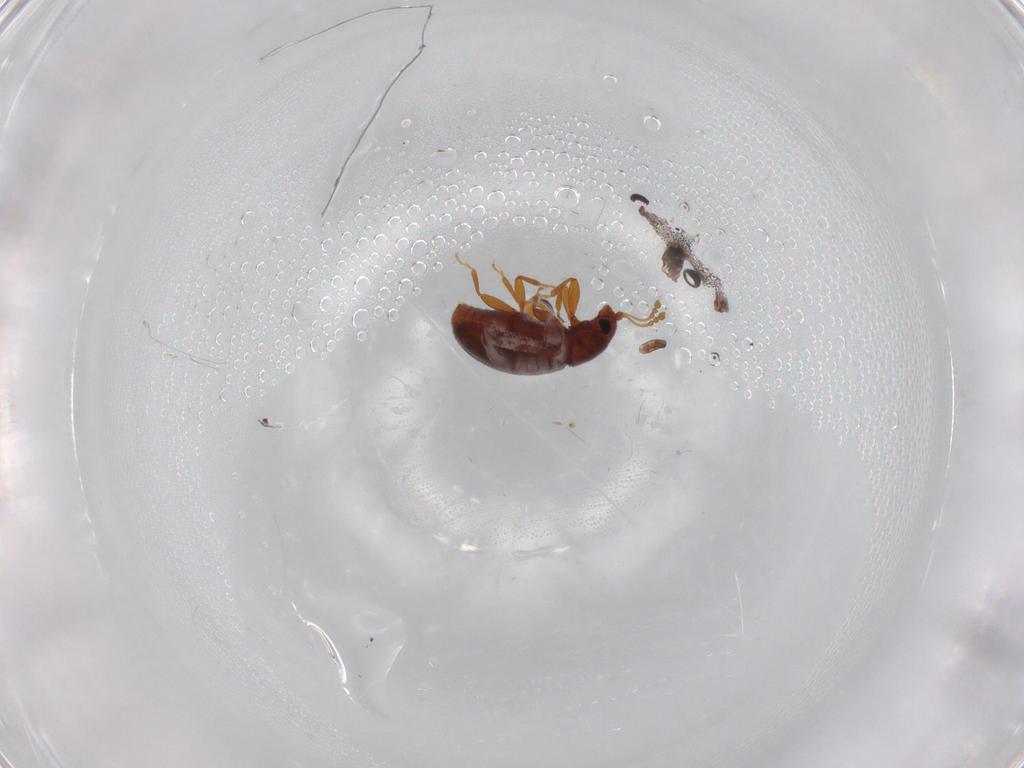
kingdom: Animalia
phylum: Arthropoda
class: Insecta
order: Coleoptera
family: Latridiidae
